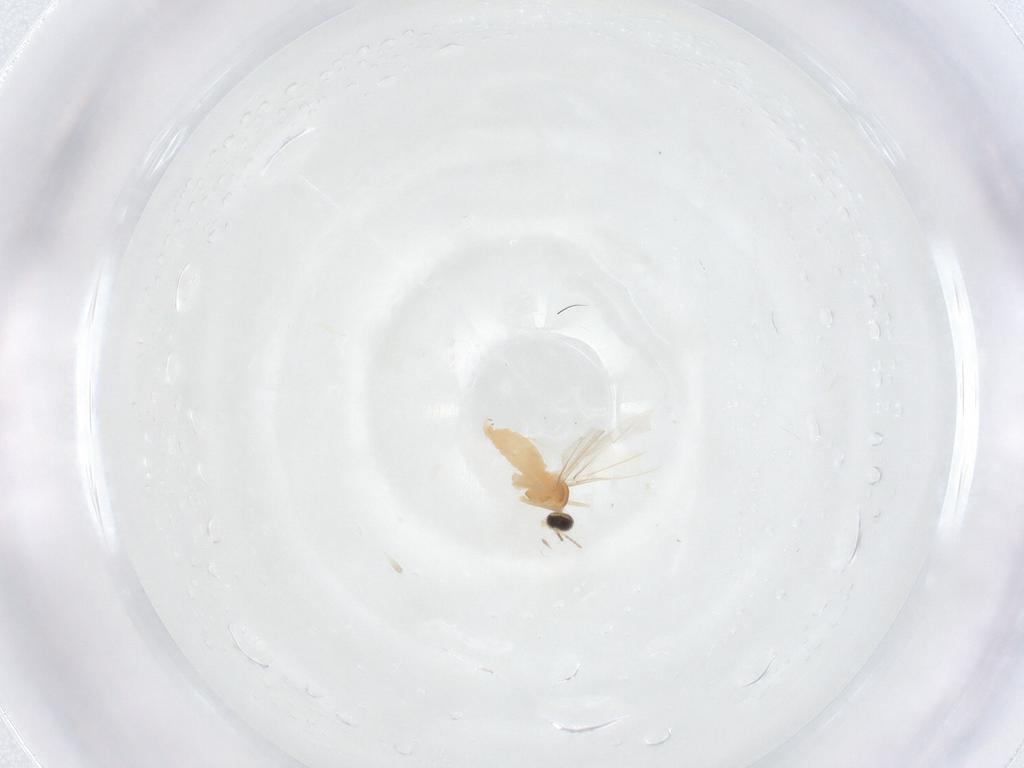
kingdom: Animalia
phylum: Arthropoda
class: Insecta
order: Diptera
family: Cecidomyiidae
